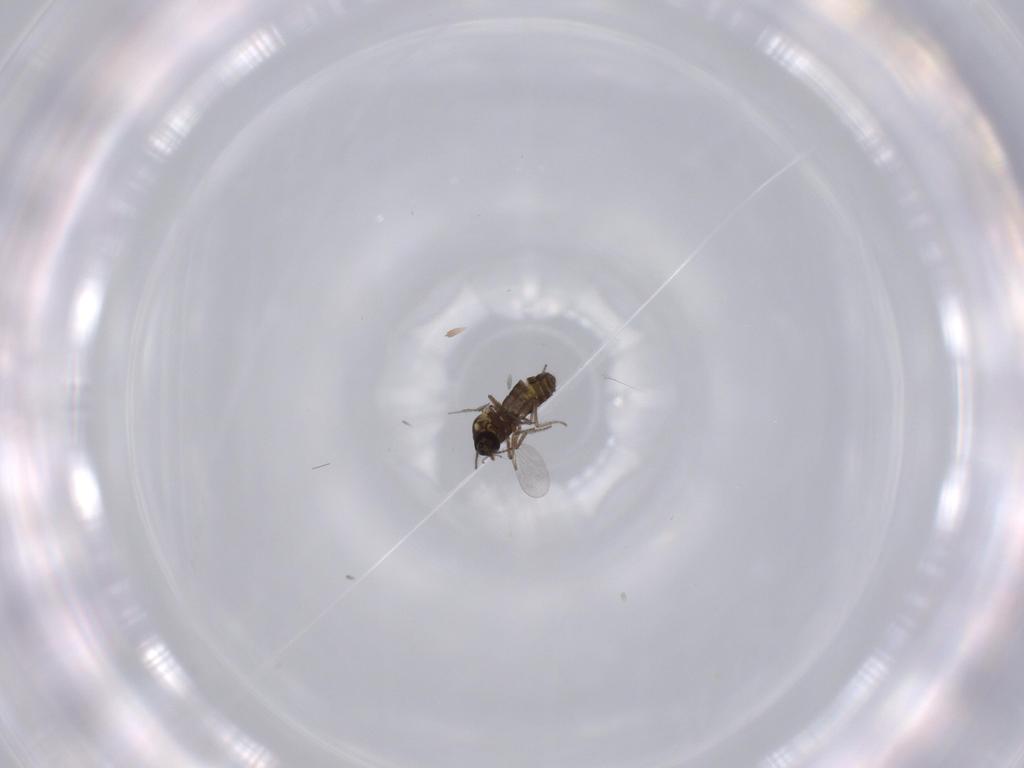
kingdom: Animalia
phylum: Arthropoda
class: Insecta
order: Diptera
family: Ceratopogonidae
